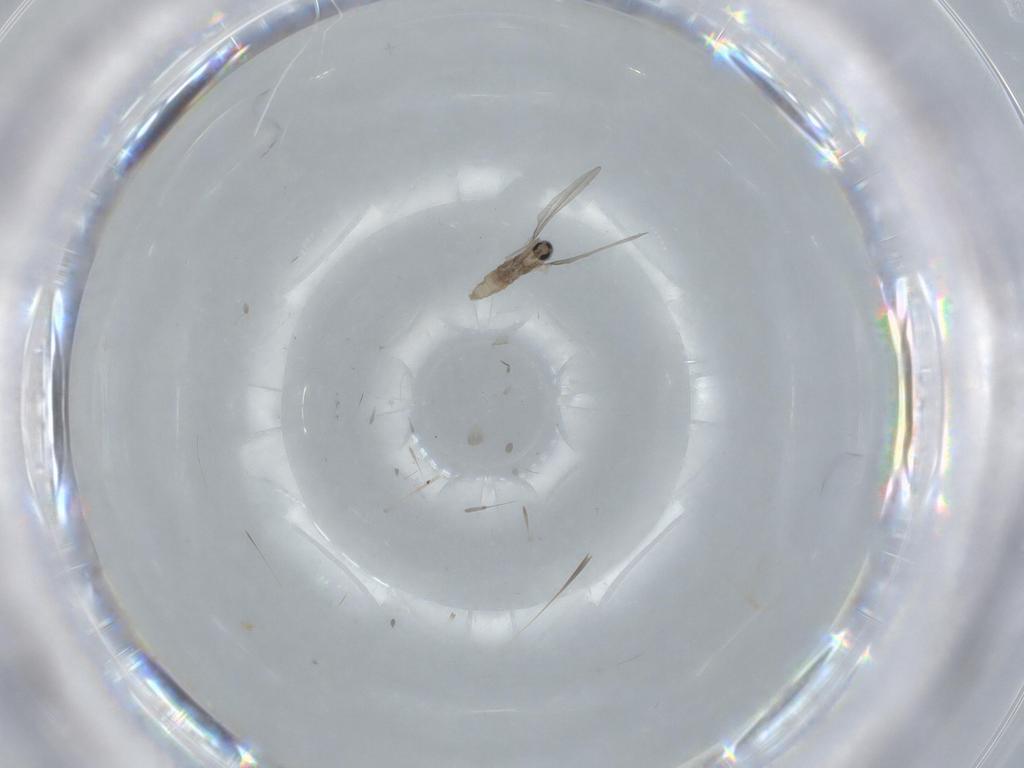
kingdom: Animalia
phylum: Arthropoda
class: Insecta
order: Diptera
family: Cecidomyiidae
